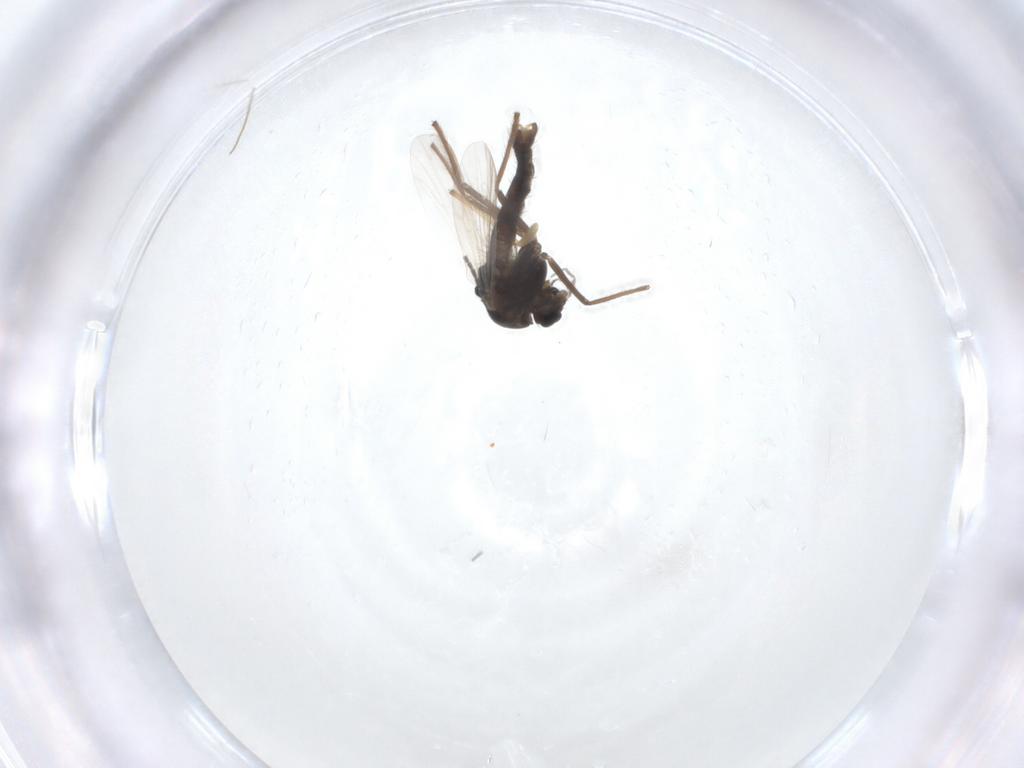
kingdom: Animalia
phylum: Arthropoda
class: Insecta
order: Diptera
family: Chironomidae
